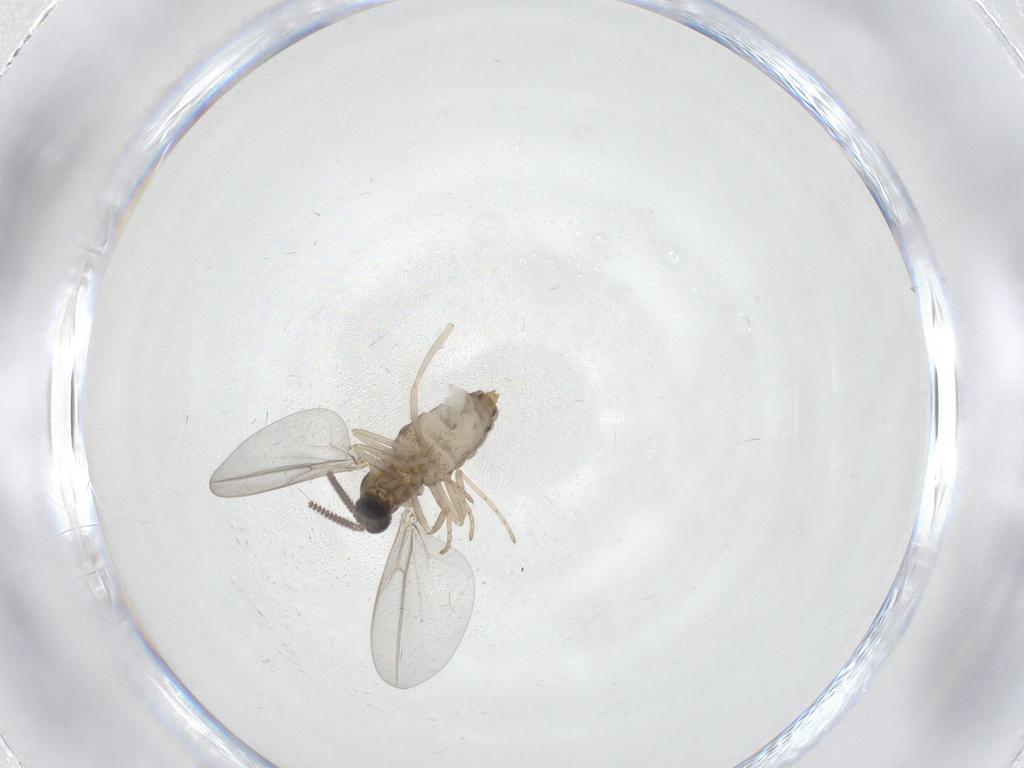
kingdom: Animalia
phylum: Arthropoda
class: Insecta
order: Diptera
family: Cecidomyiidae
